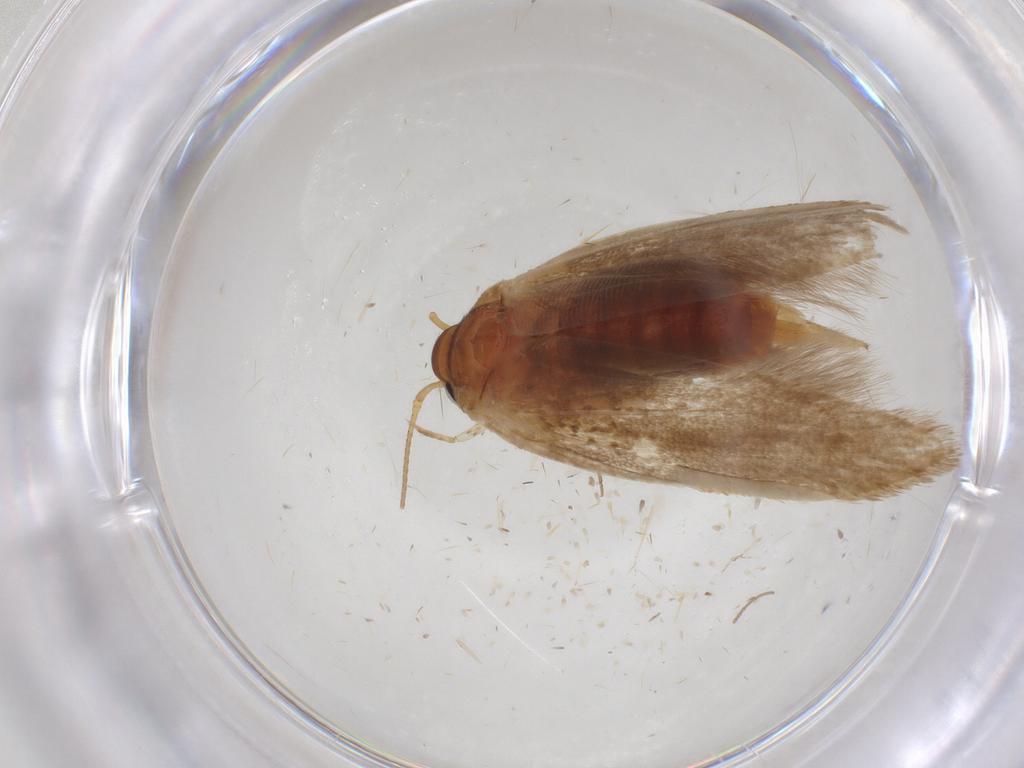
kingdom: Animalia
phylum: Arthropoda
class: Insecta
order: Lepidoptera
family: Blastobasidae
